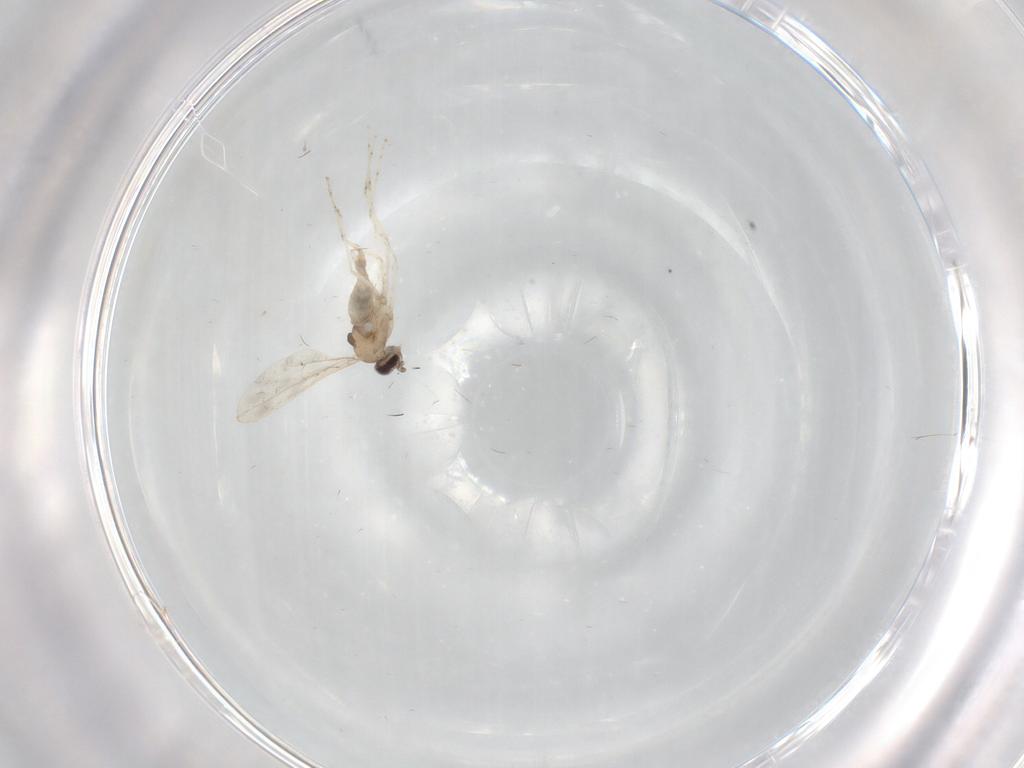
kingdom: Animalia
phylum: Arthropoda
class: Insecta
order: Diptera
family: Cecidomyiidae
